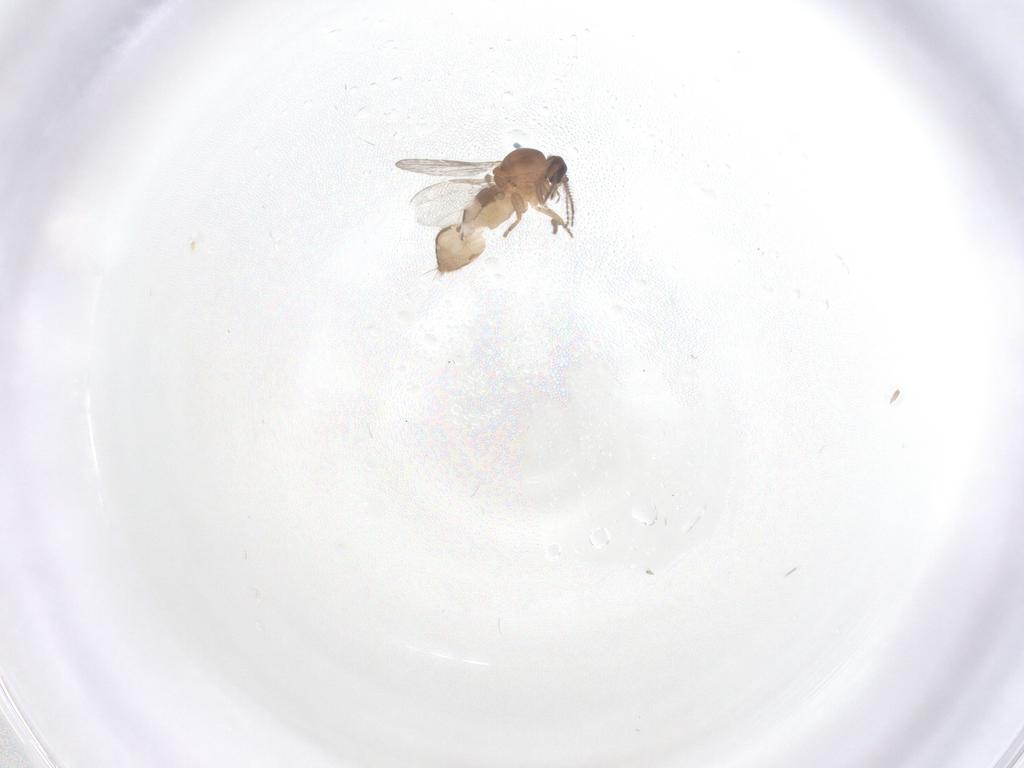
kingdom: Animalia
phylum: Arthropoda
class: Insecta
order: Diptera
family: Ceratopogonidae
